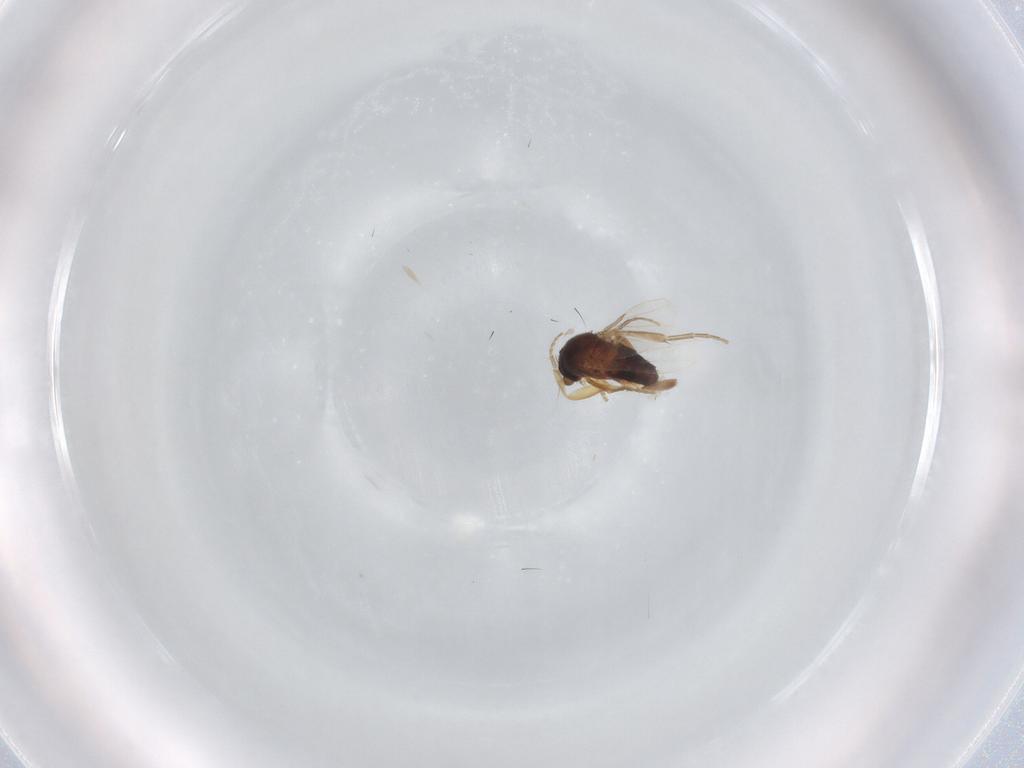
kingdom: Animalia
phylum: Arthropoda
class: Insecta
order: Diptera
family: Phoridae
